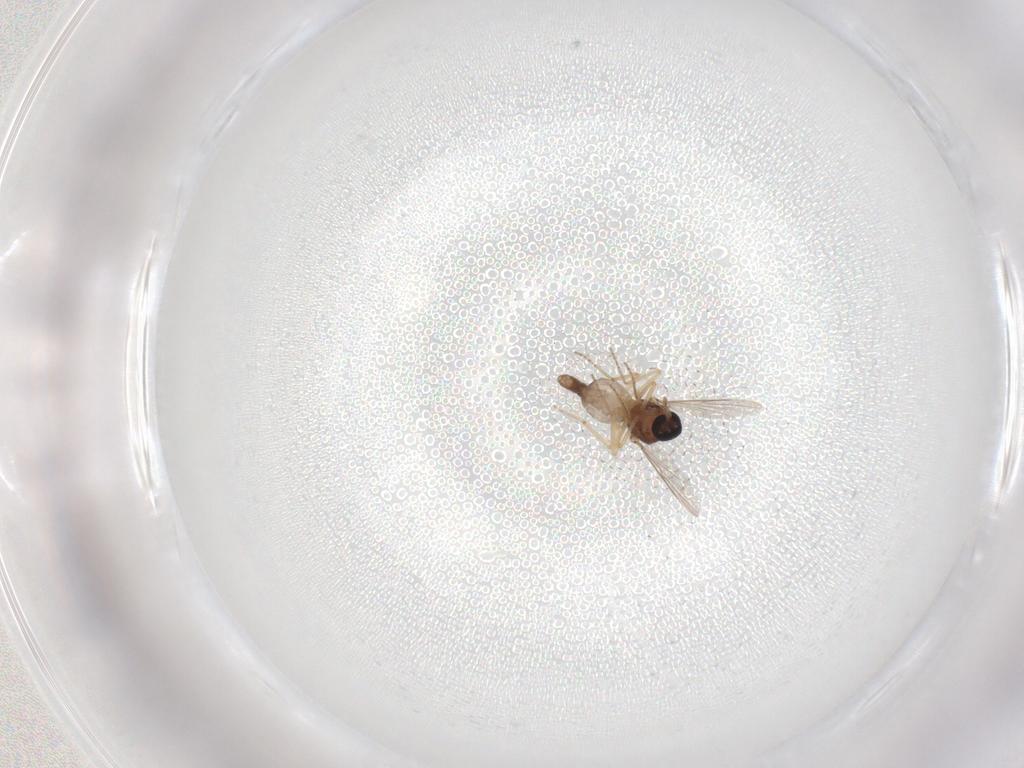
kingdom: Animalia
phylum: Arthropoda
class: Insecta
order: Diptera
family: Ceratopogonidae
